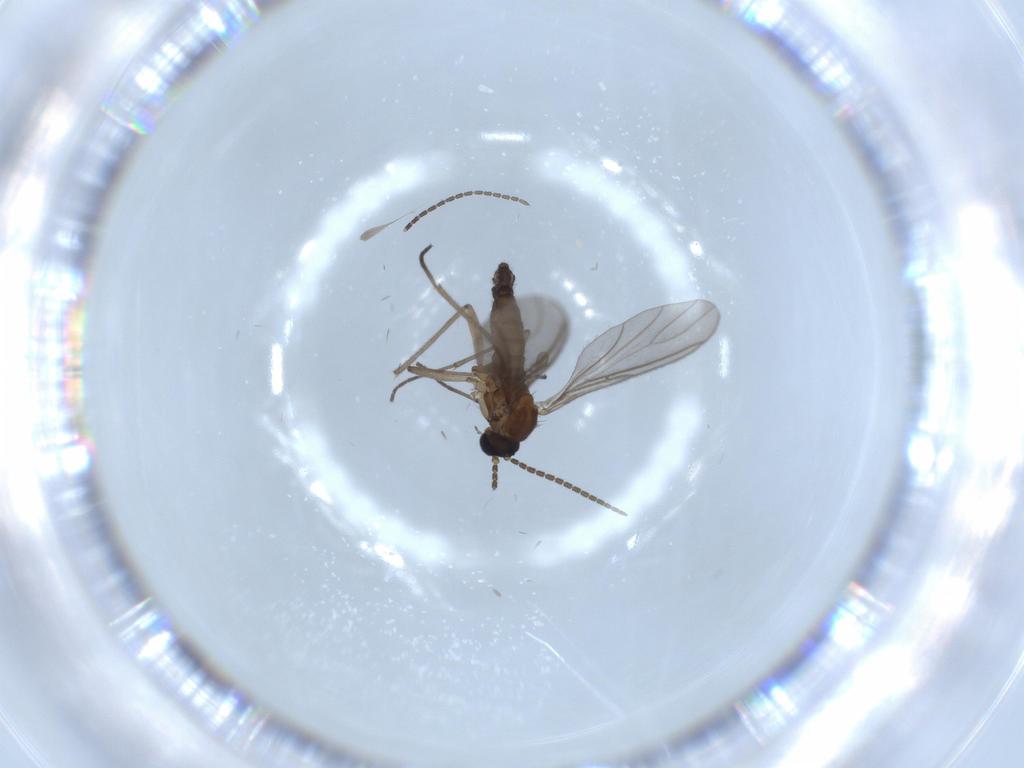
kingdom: Animalia
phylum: Arthropoda
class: Insecta
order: Diptera
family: Sciaridae
